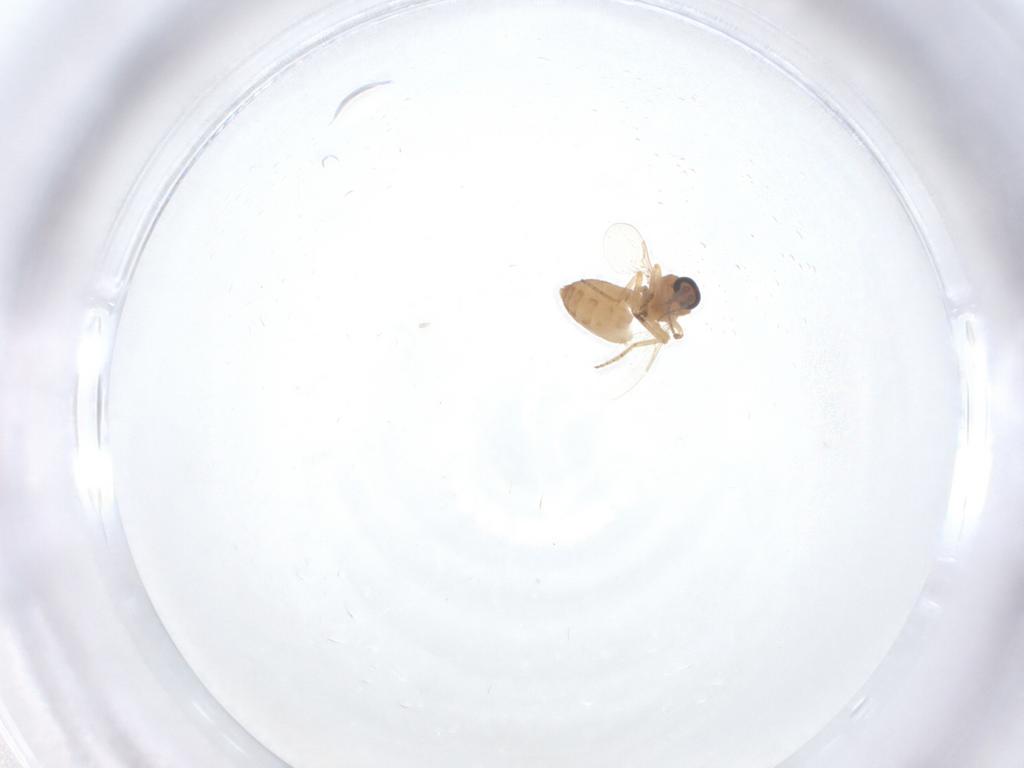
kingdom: Animalia
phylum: Arthropoda
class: Insecta
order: Diptera
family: Ceratopogonidae
